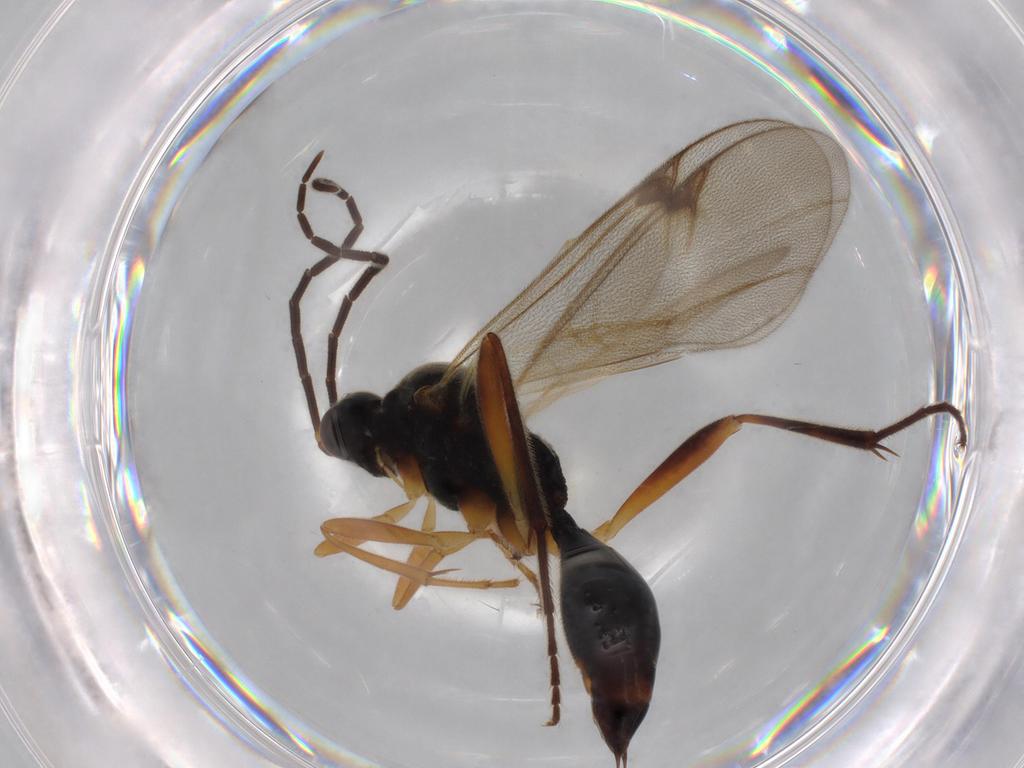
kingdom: Animalia
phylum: Arthropoda
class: Insecta
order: Hymenoptera
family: Platygastridae
